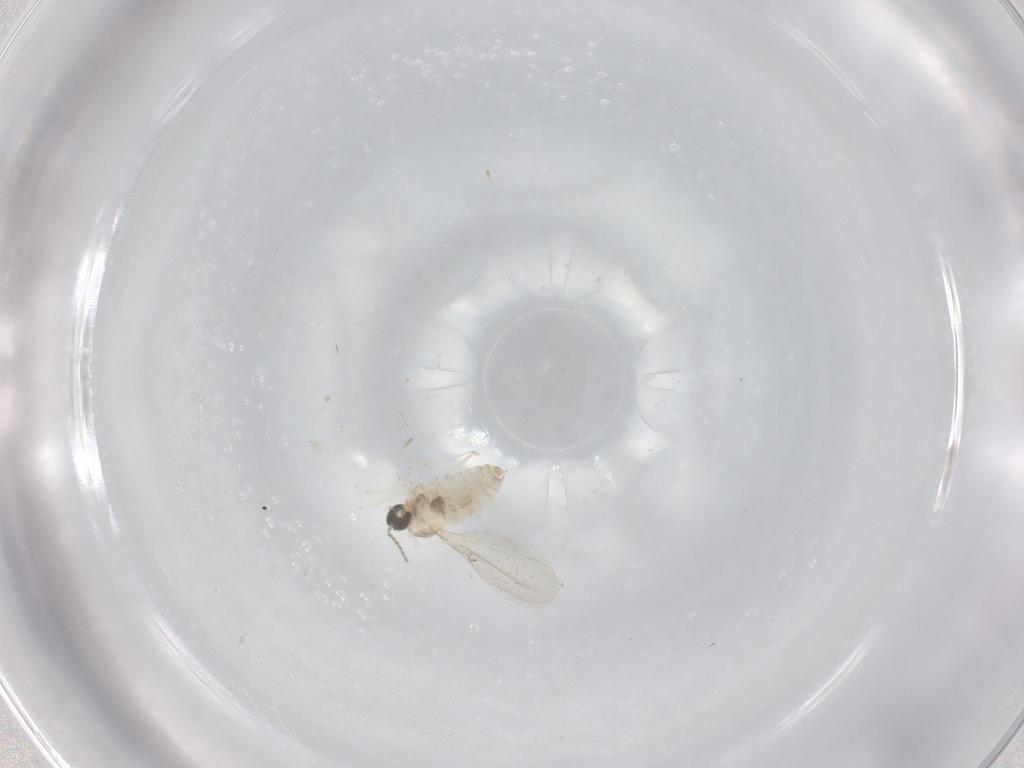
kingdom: Animalia
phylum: Arthropoda
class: Insecta
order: Diptera
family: Cecidomyiidae
